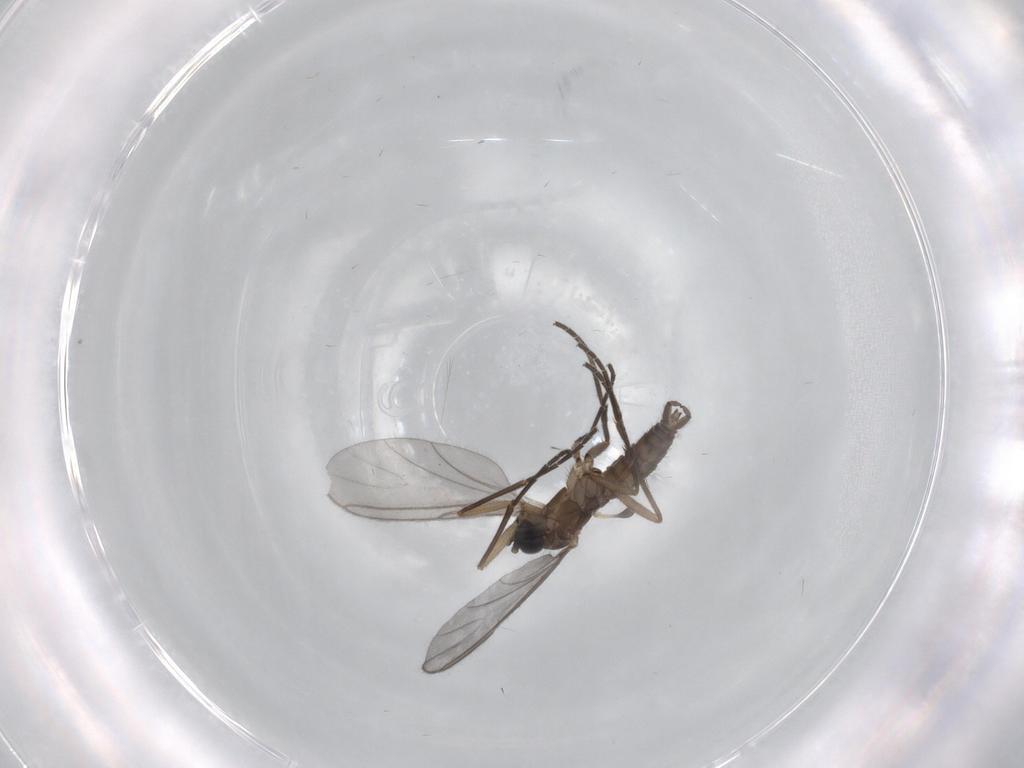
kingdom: Animalia
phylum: Arthropoda
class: Insecta
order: Diptera
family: Sciaridae
